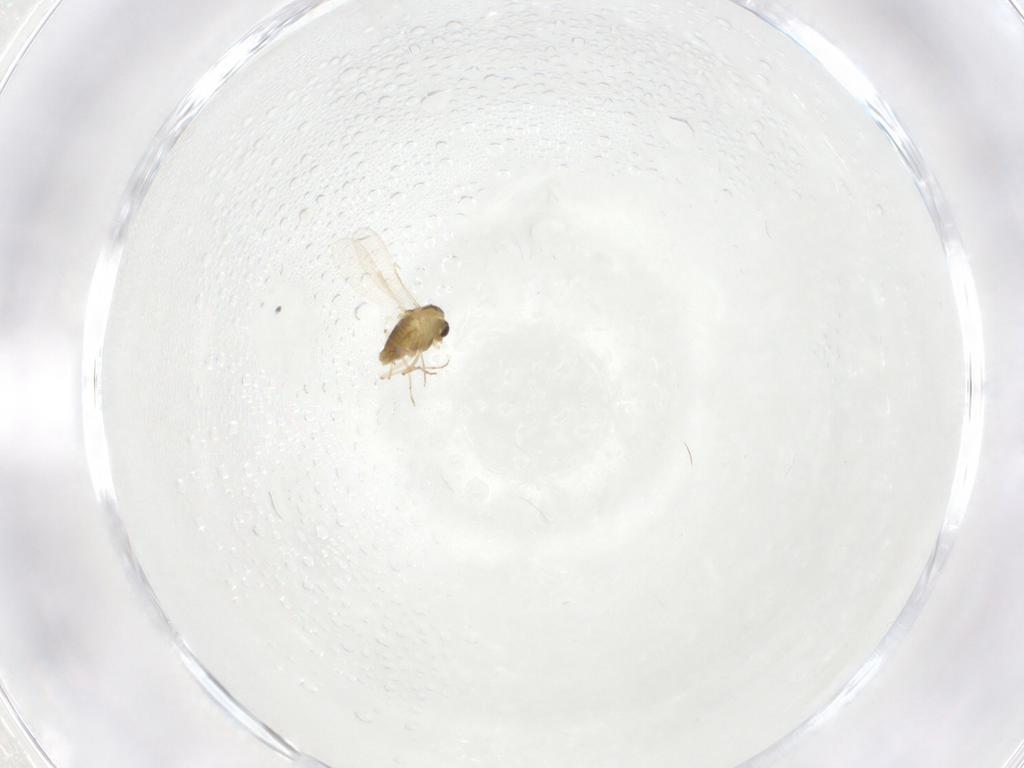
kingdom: Animalia
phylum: Arthropoda
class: Insecta
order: Diptera
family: Chironomidae
